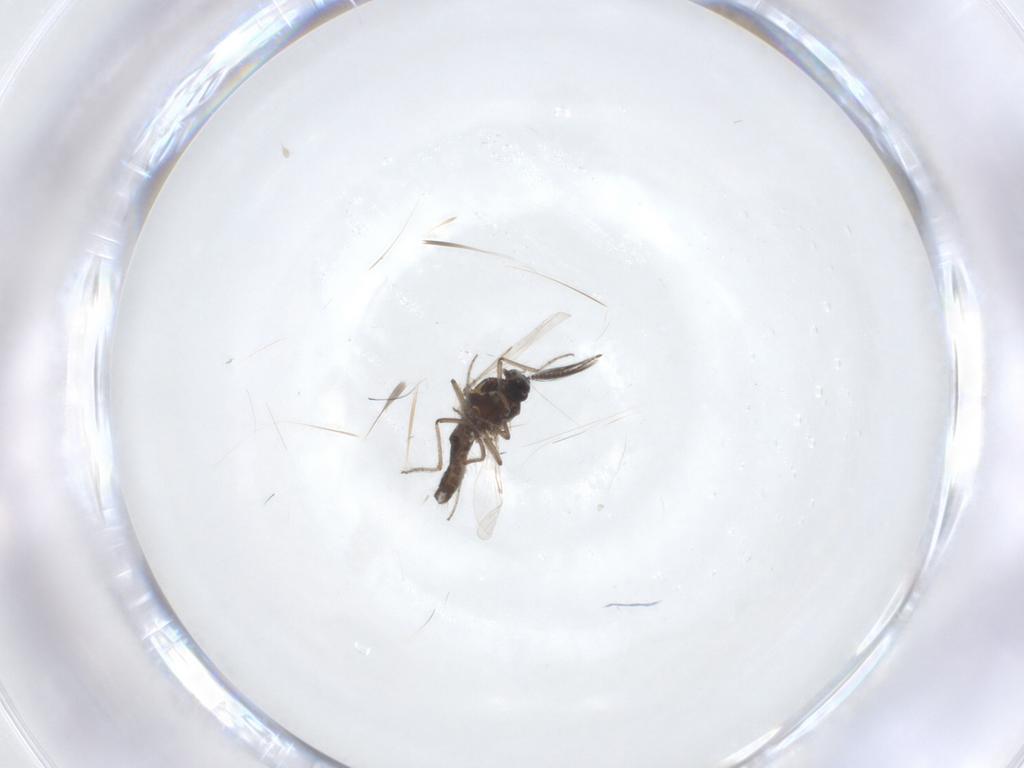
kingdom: Animalia
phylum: Arthropoda
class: Insecta
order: Diptera
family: Ceratopogonidae
